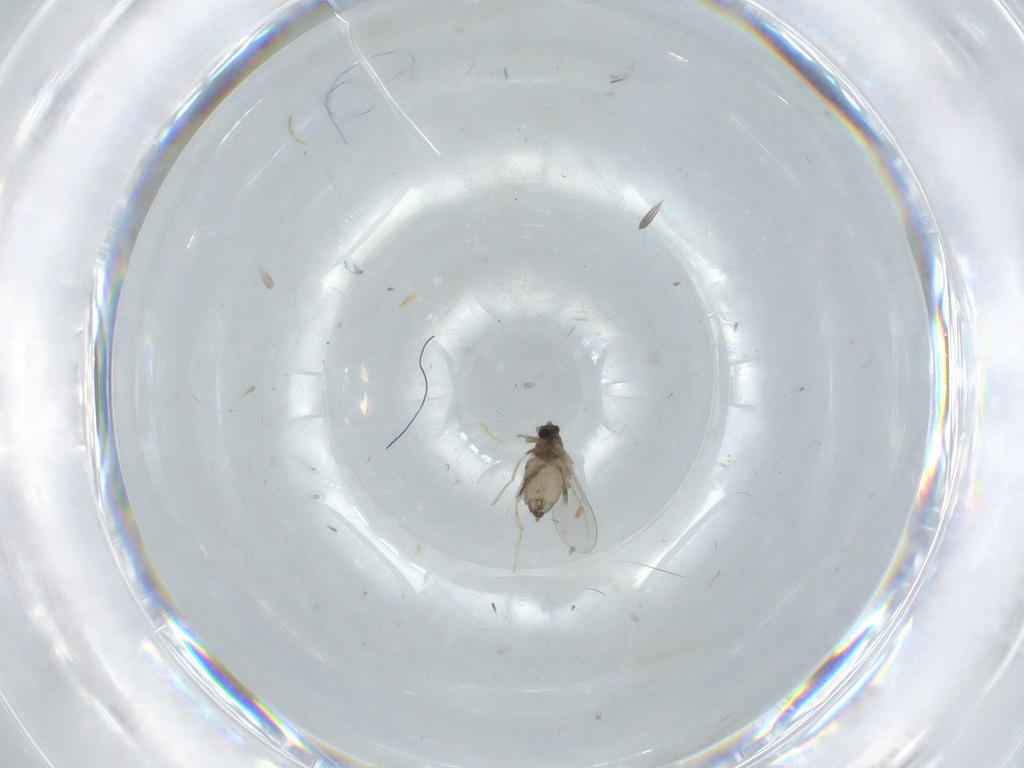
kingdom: Animalia
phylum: Arthropoda
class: Insecta
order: Diptera
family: Cecidomyiidae
